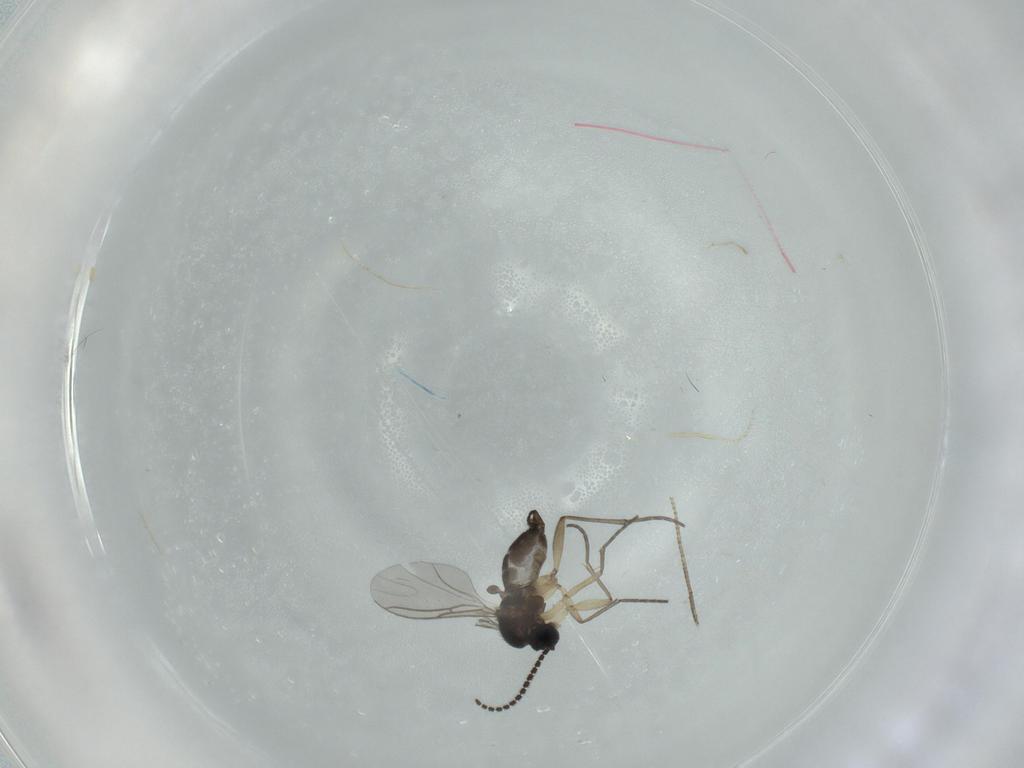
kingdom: Animalia
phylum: Arthropoda
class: Insecta
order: Diptera
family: Sciaridae
